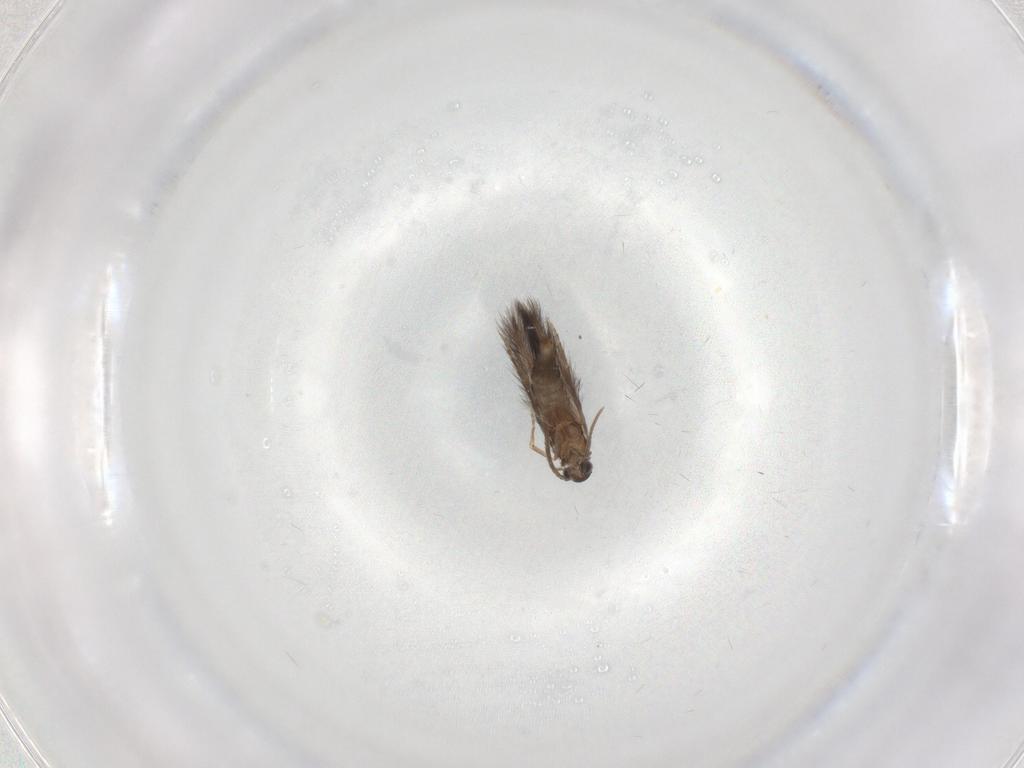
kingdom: Animalia
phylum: Arthropoda
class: Insecta
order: Trichoptera
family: Hydroptilidae
